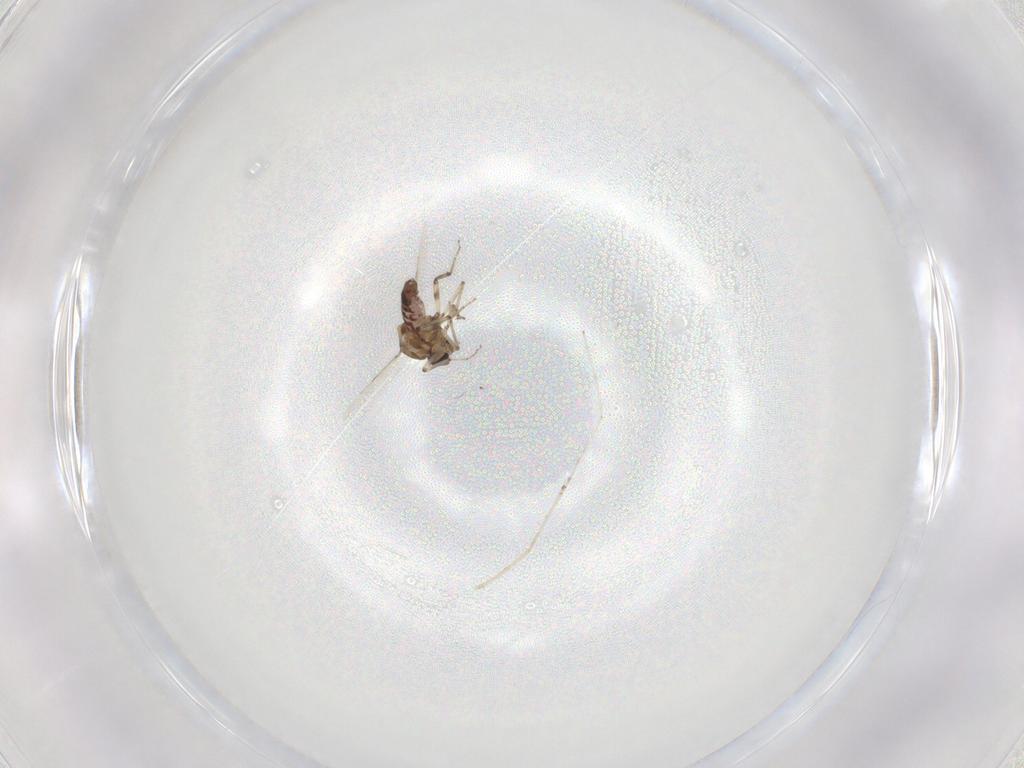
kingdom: Animalia
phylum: Arthropoda
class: Insecta
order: Diptera
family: Ceratopogonidae
